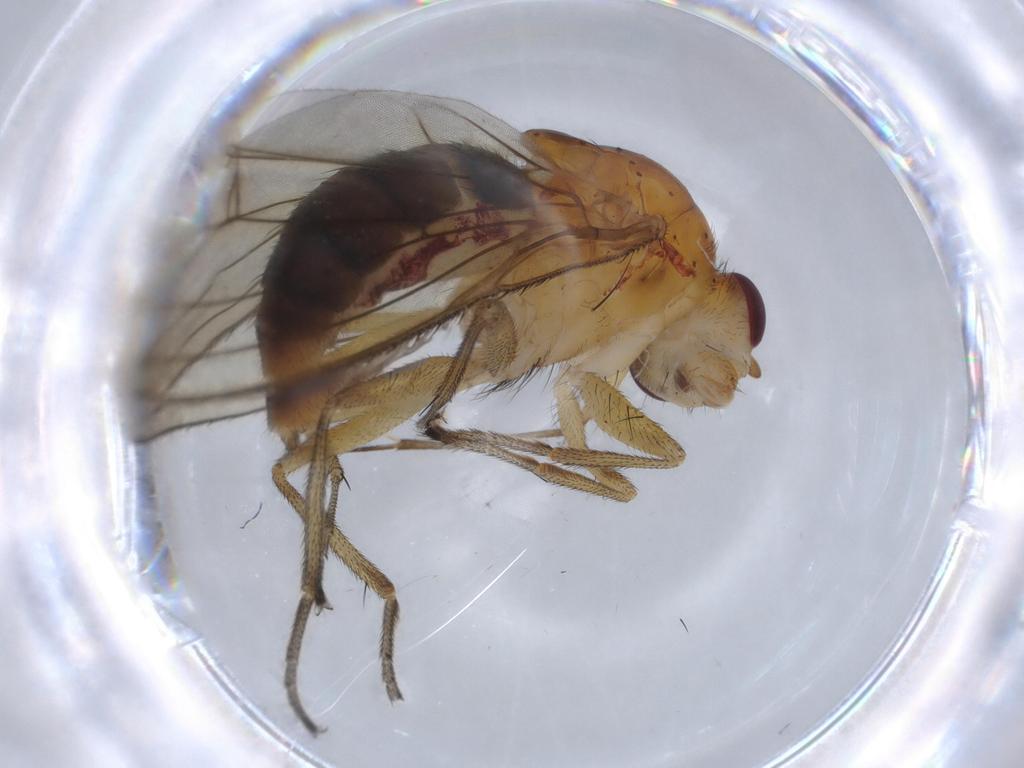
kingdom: Animalia
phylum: Arthropoda
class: Insecta
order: Diptera
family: Cecidomyiidae
